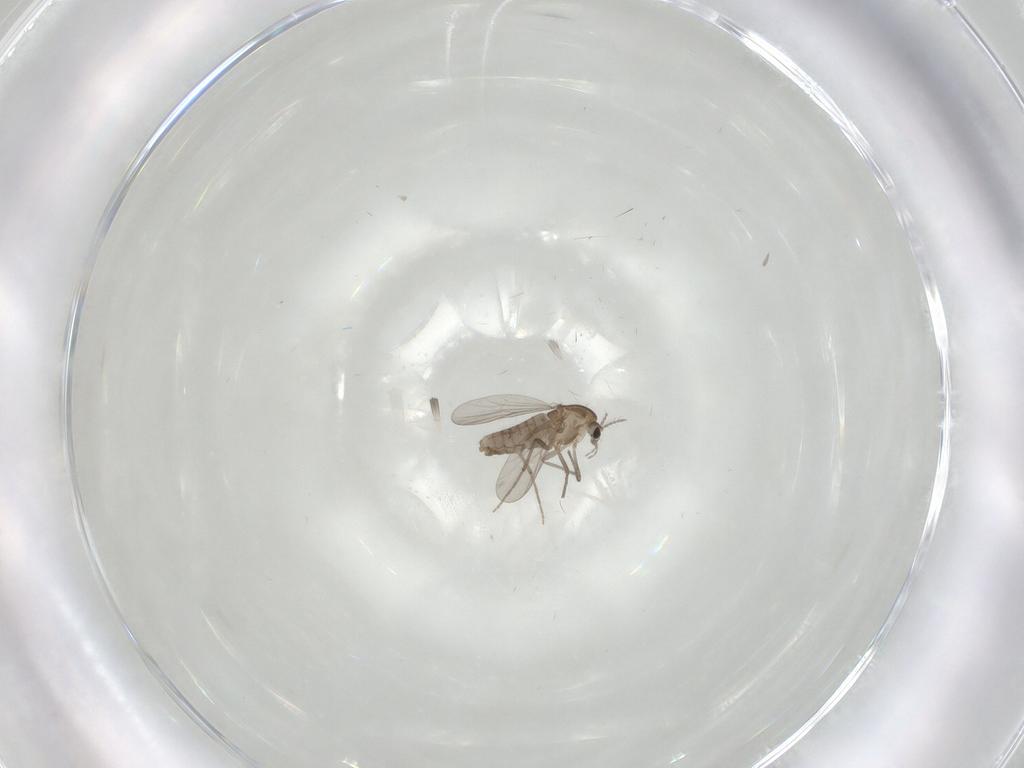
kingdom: Animalia
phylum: Arthropoda
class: Insecta
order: Diptera
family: Chironomidae
